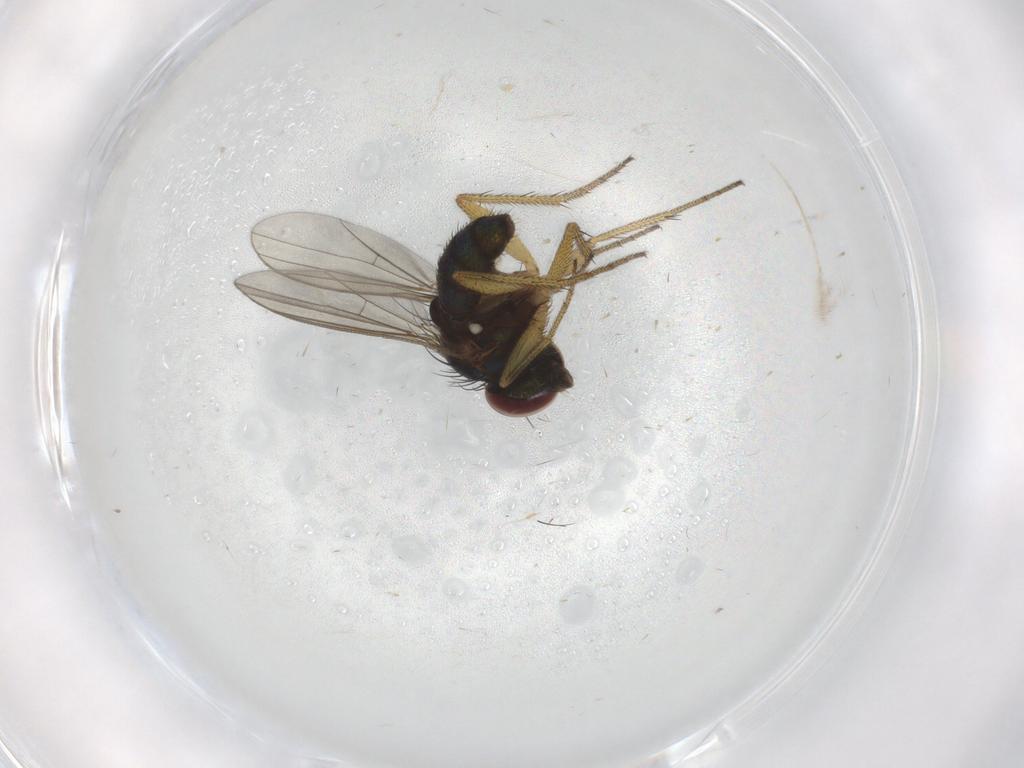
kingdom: Animalia
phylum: Arthropoda
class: Insecta
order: Diptera
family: Dolichopodidae
